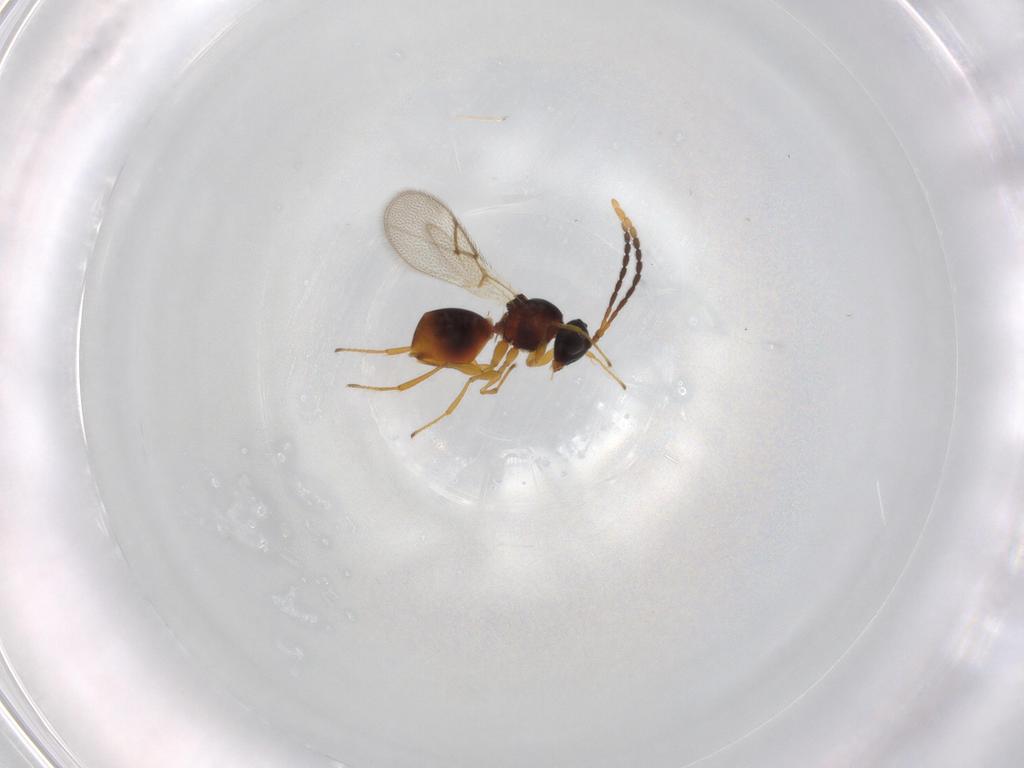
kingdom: Animalia
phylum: Arthropoda
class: Insecta
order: Hymenoptera
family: Figitidae
